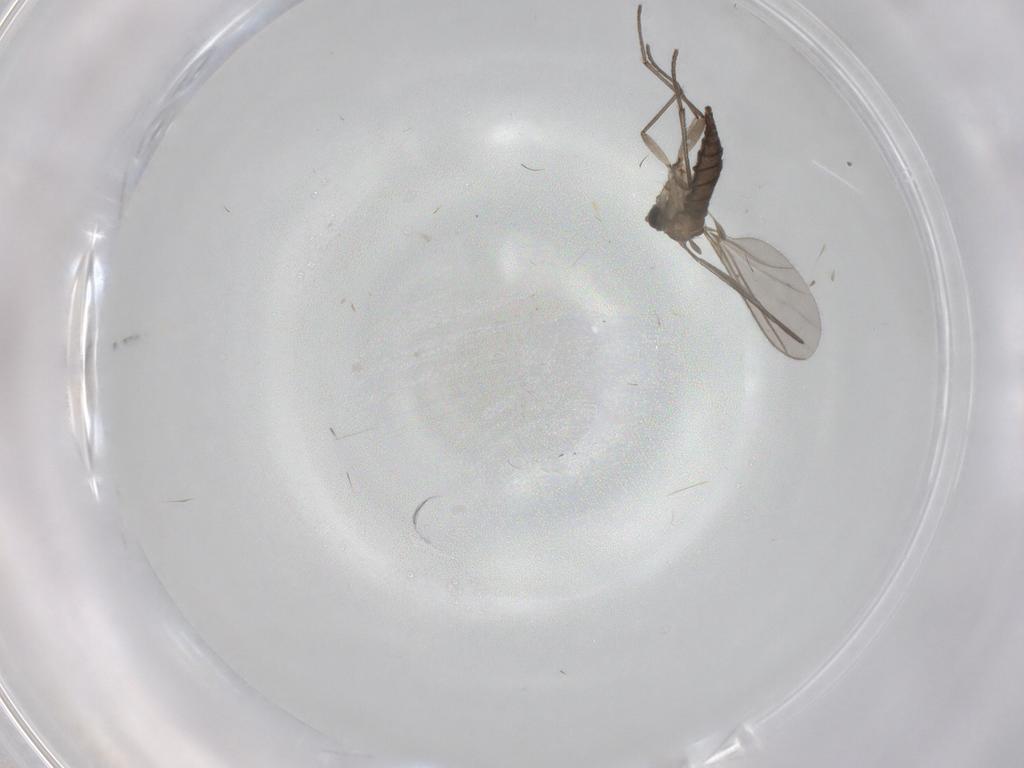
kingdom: Animalia
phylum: Arthropoda
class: Insecta
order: Diptera
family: Sciaridae
